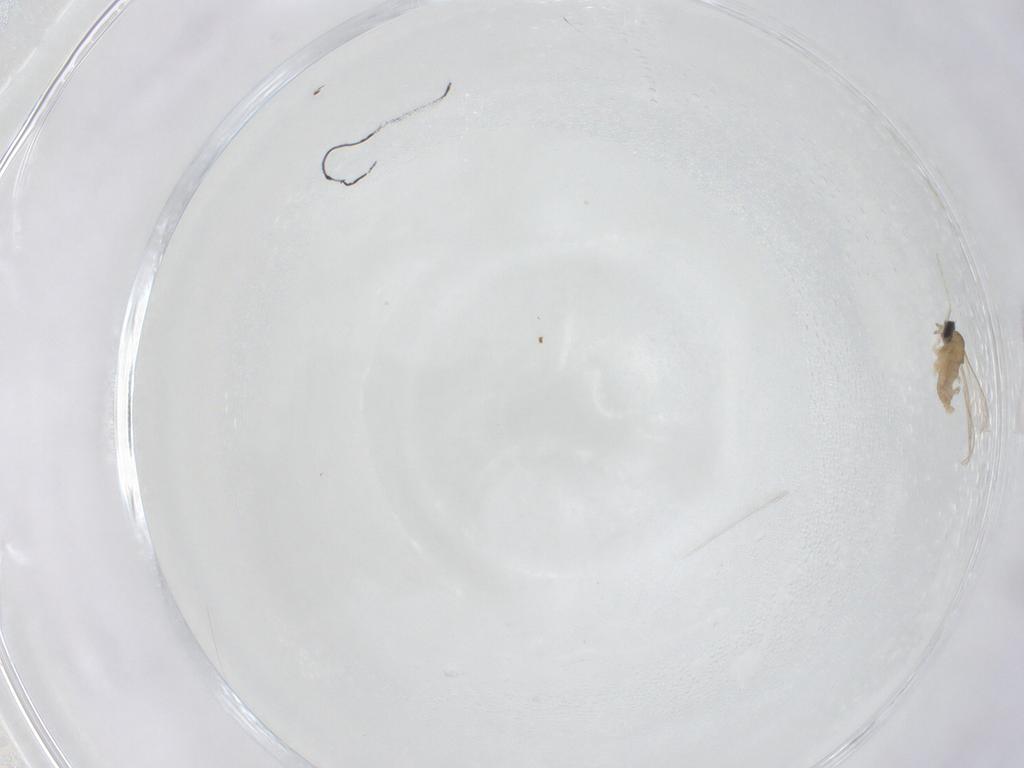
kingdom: Animalia
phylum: Arthropoda
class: Insecta
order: Diptera
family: Cecidomyiidae
